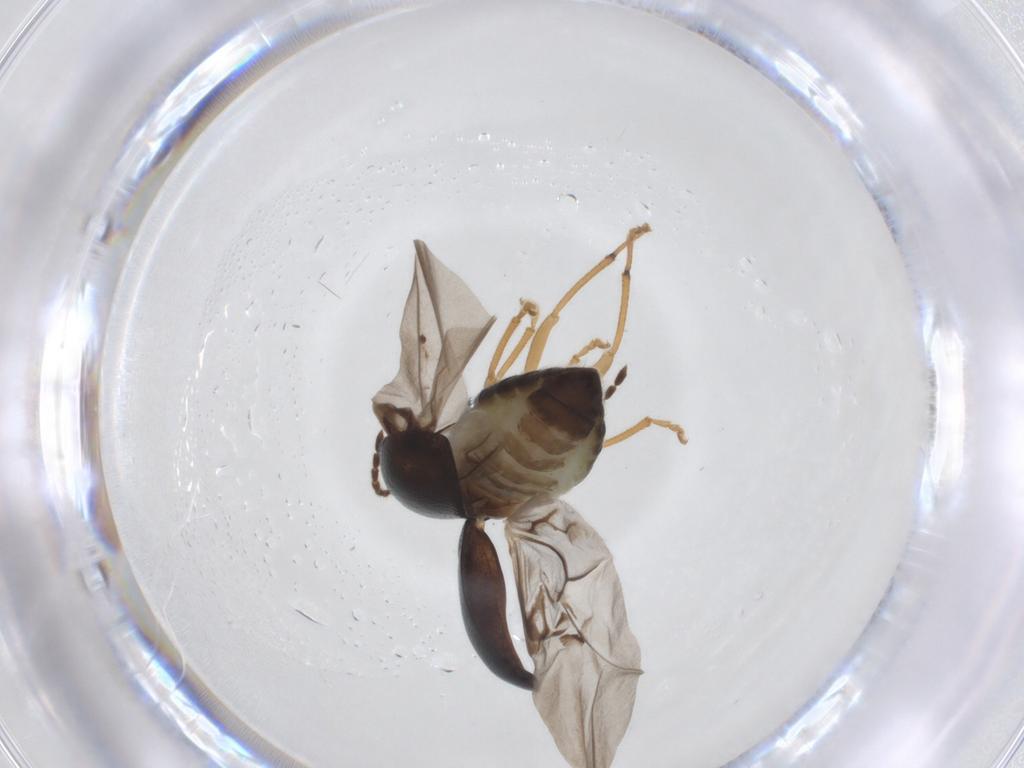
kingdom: Animalia
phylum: Arthropoda
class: Insecta
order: Coleoptera
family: Chrysomelidae
